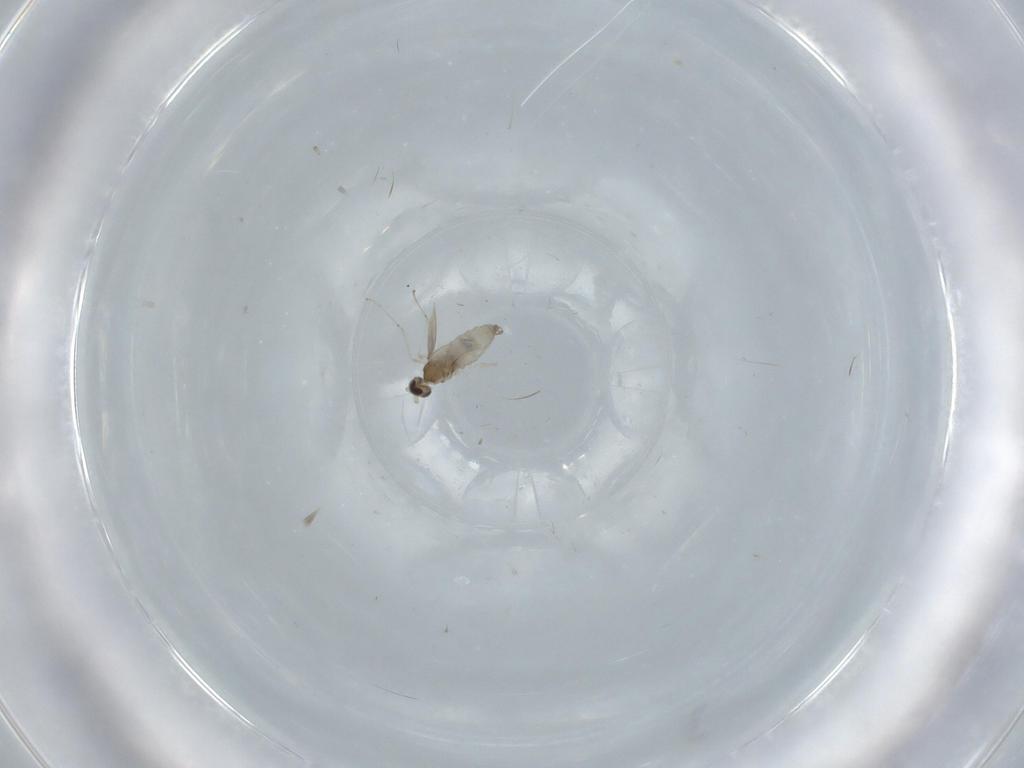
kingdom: Animalia
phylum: Arthropoda
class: Insecta
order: Diptera
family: Cecidomyiidae
